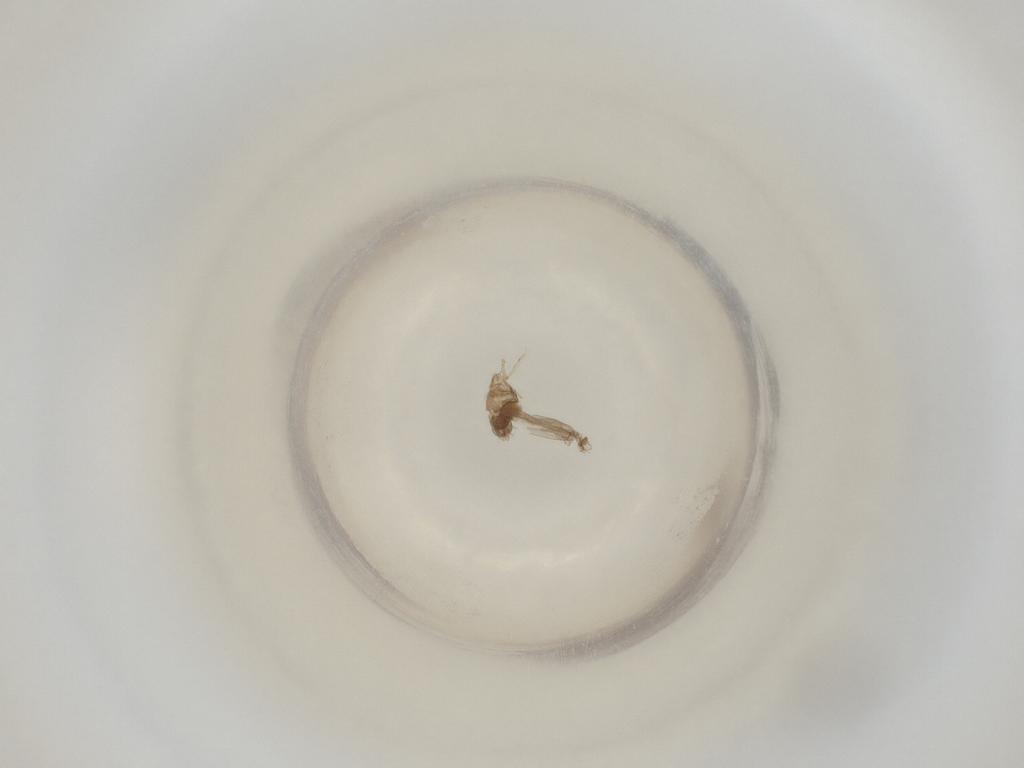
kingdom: Animalia
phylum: Arthropoda
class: Insecta
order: Diptera
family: Cecidomyiidae
